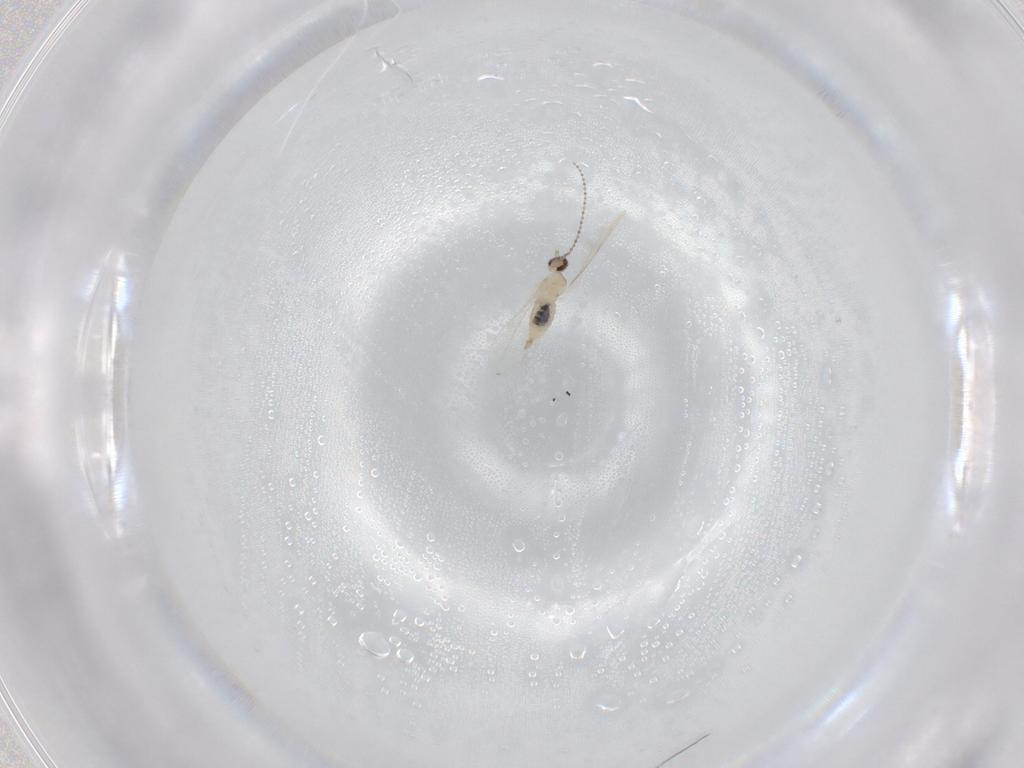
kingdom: Animalia
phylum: Arthropoda
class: Insecta
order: Diptera
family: Cecidomyiidae
